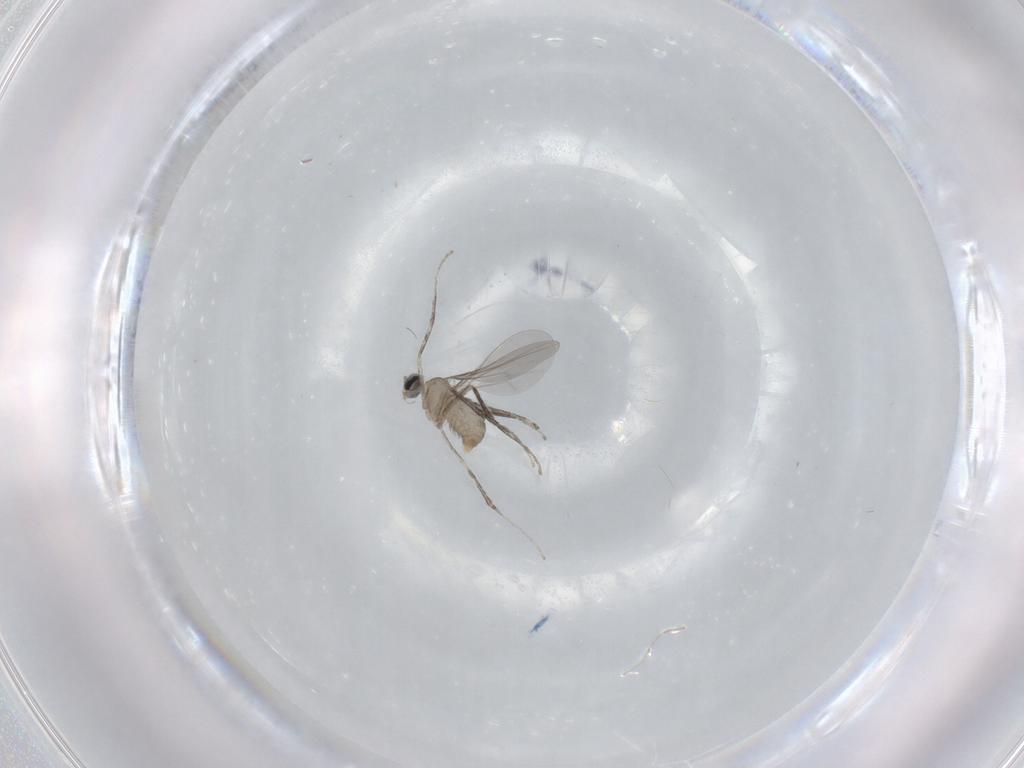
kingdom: Animalia
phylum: Arthropoda
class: Insecta
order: Diptera
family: Cecidomyiidae
